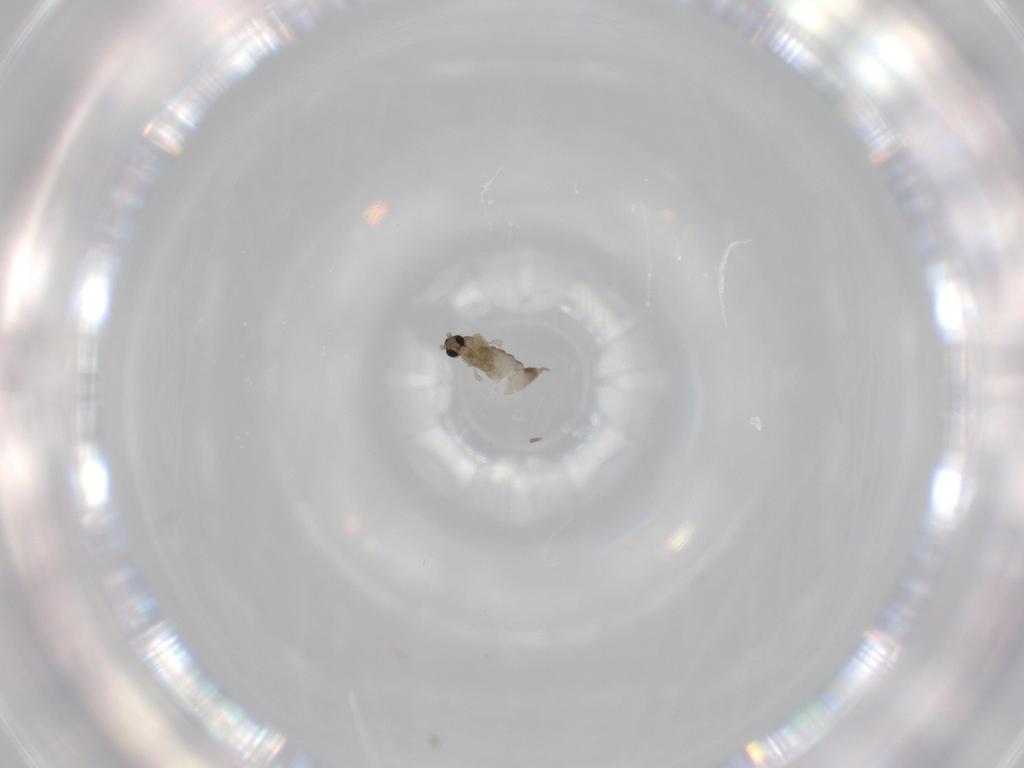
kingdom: Animalia
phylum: Arthropoda
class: Insecta
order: Diptera
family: Cecidomyiidae
